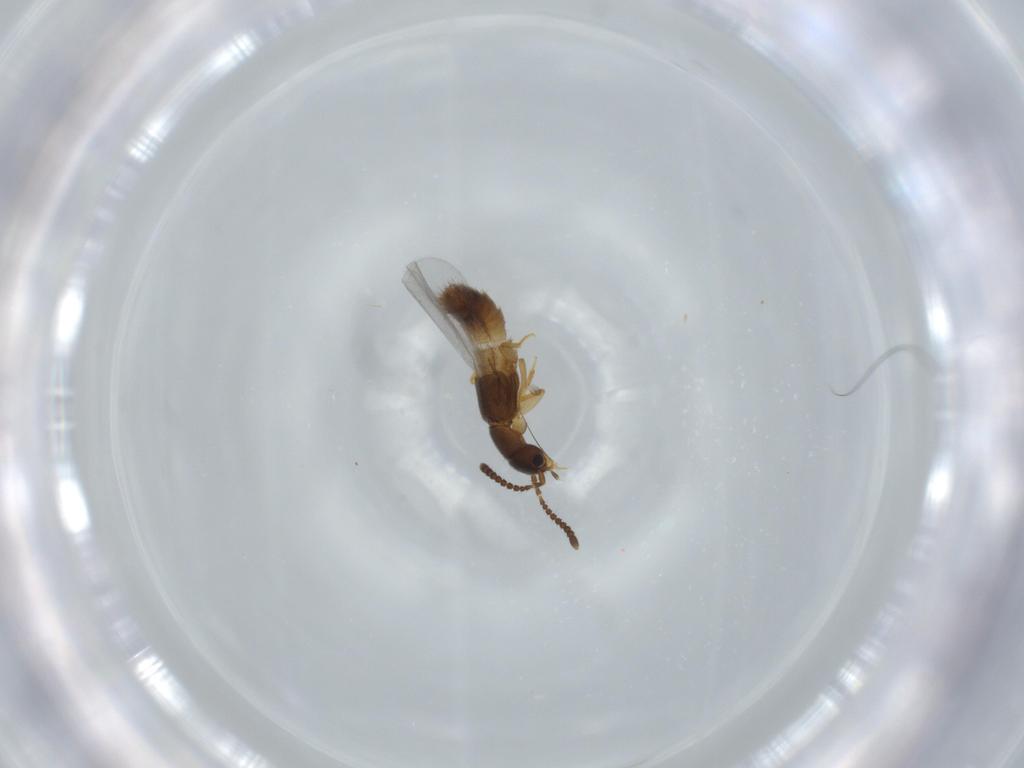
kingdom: Animalia
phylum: Arthropoda
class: Insecta
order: Coleoptera
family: Staphylinidae
